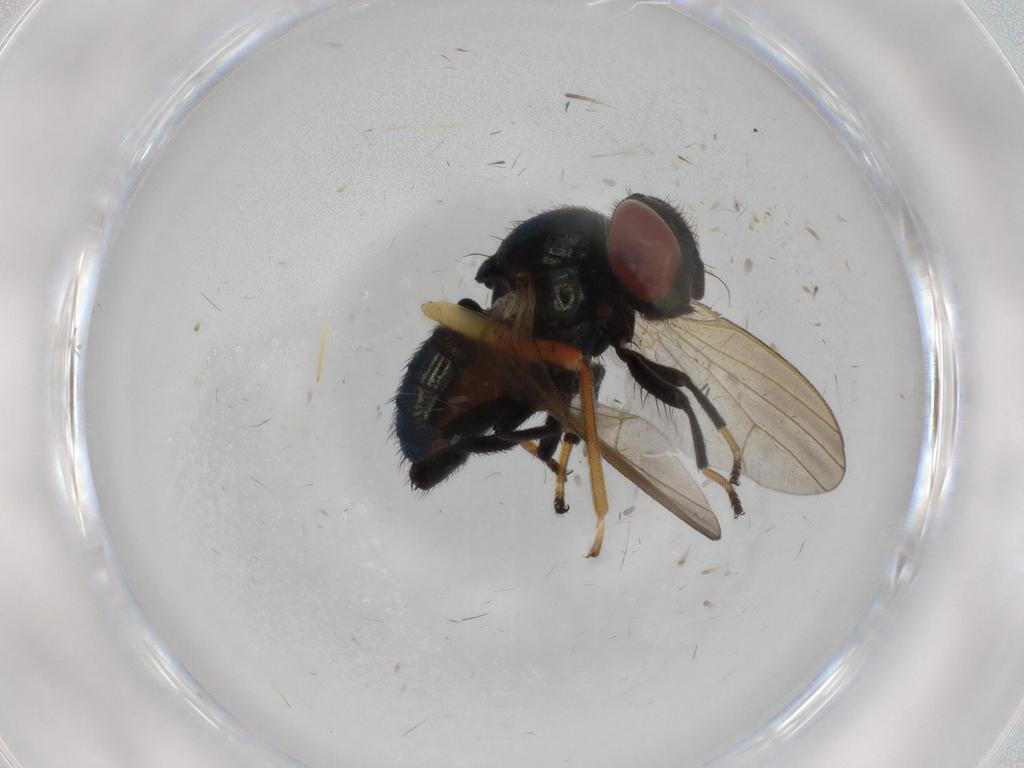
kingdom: Animalia
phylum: Arthropoda
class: Insecta
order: Diptera
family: Lonchaeidae
